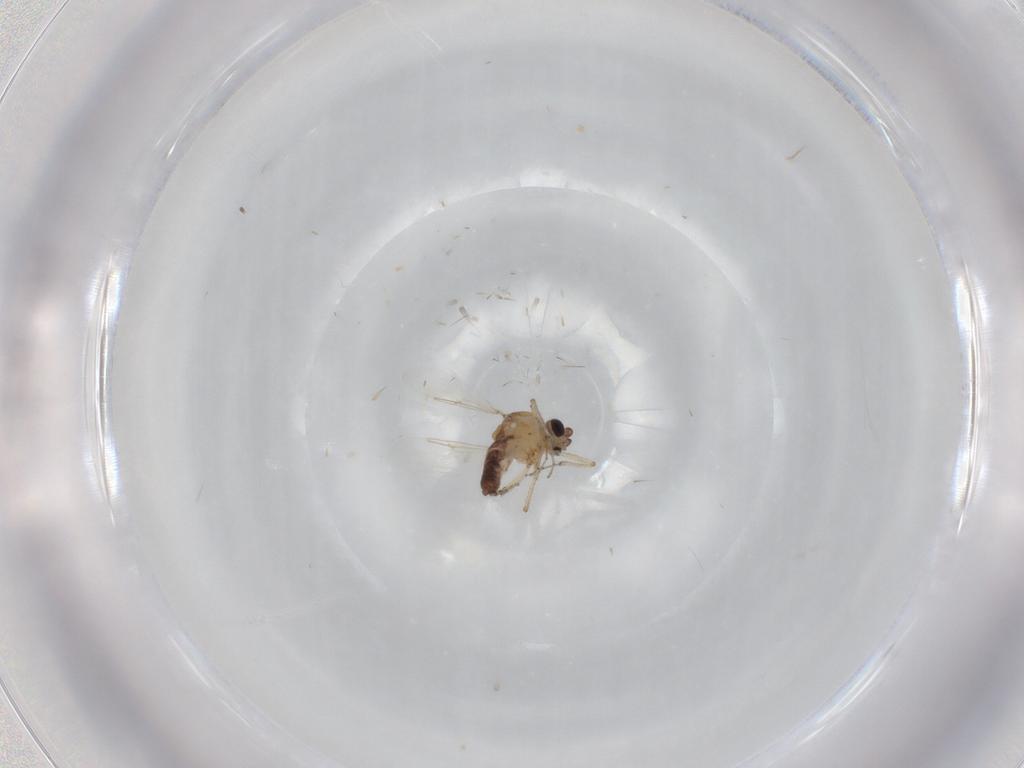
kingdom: Animalia
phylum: Arthropoda
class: Insecta
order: Diptera
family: Ceratopogonidae
